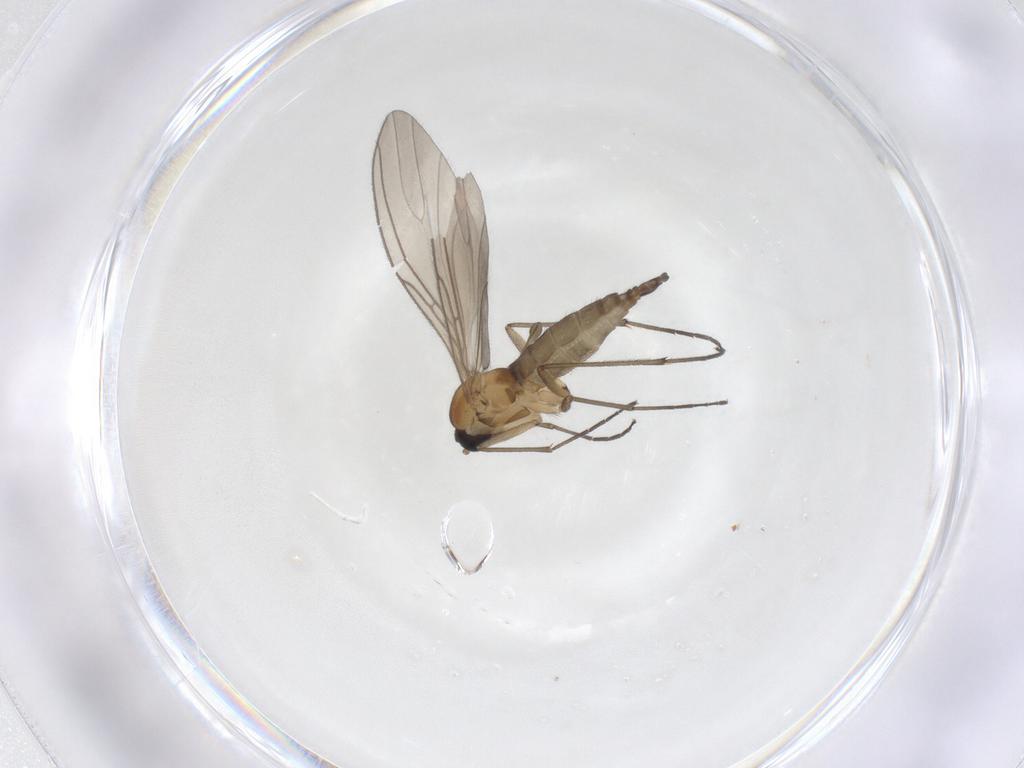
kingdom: Animalia
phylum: Arthropoda
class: Insecta
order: Diptera
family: Sciaridae
